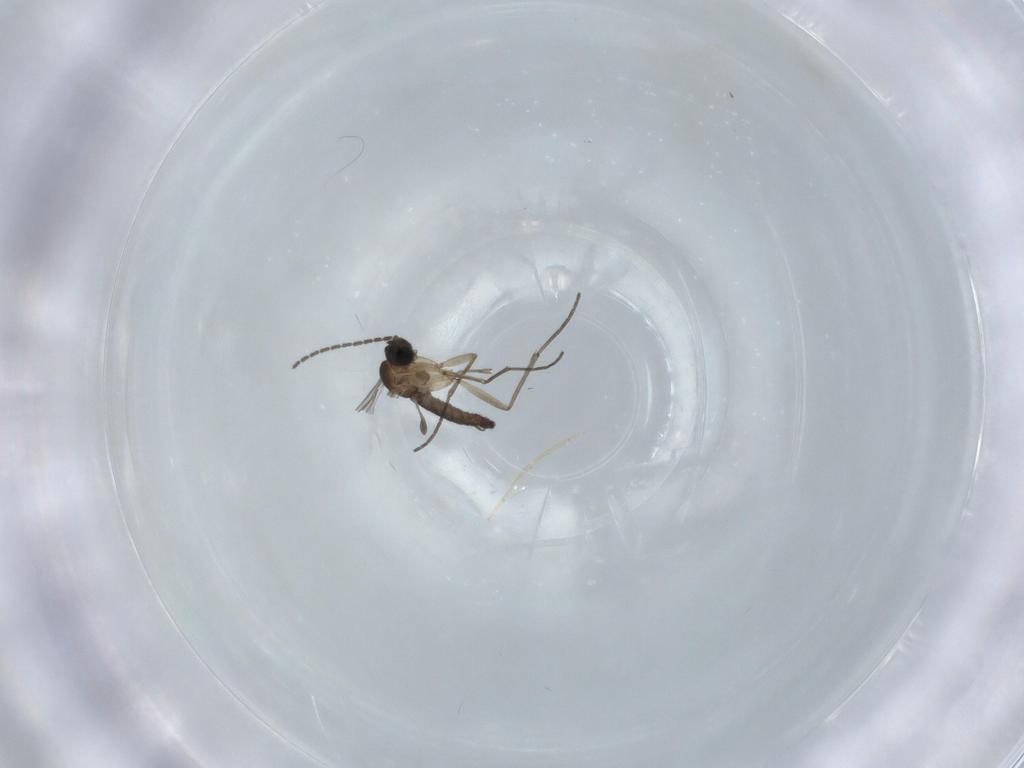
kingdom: Animalia
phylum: Arthropoda
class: Insecta
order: Diptera
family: Sciaridae
